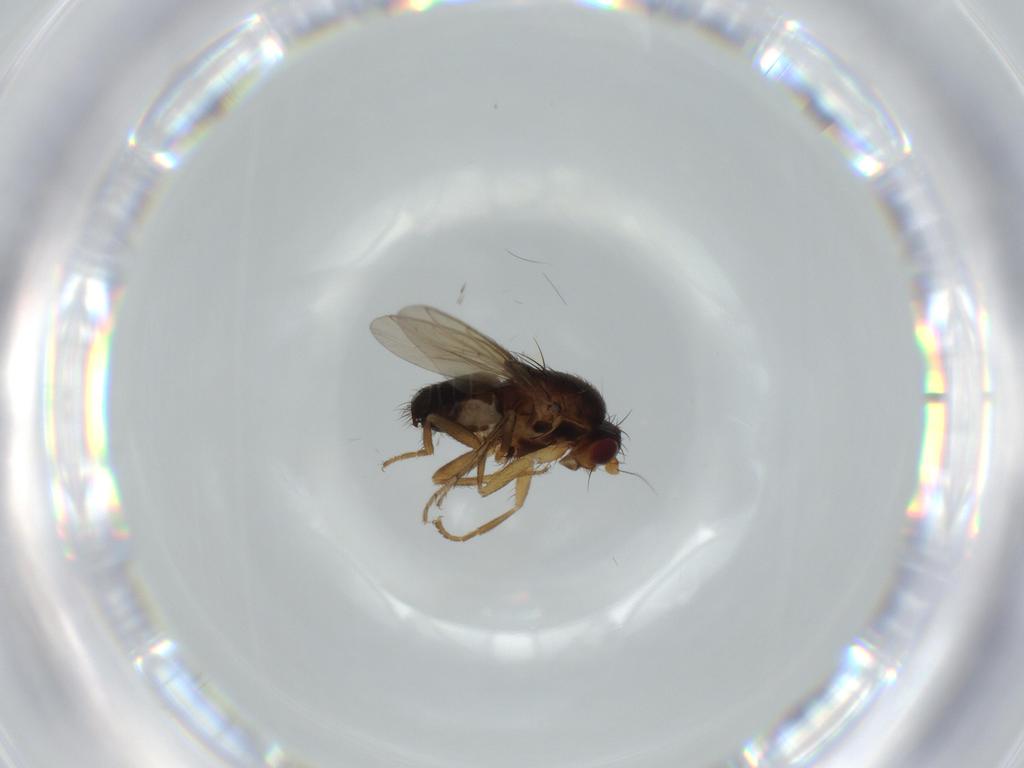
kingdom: Animalia
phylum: Arthropoda
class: Insecta
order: Diptera
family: Sphaeroceridae
